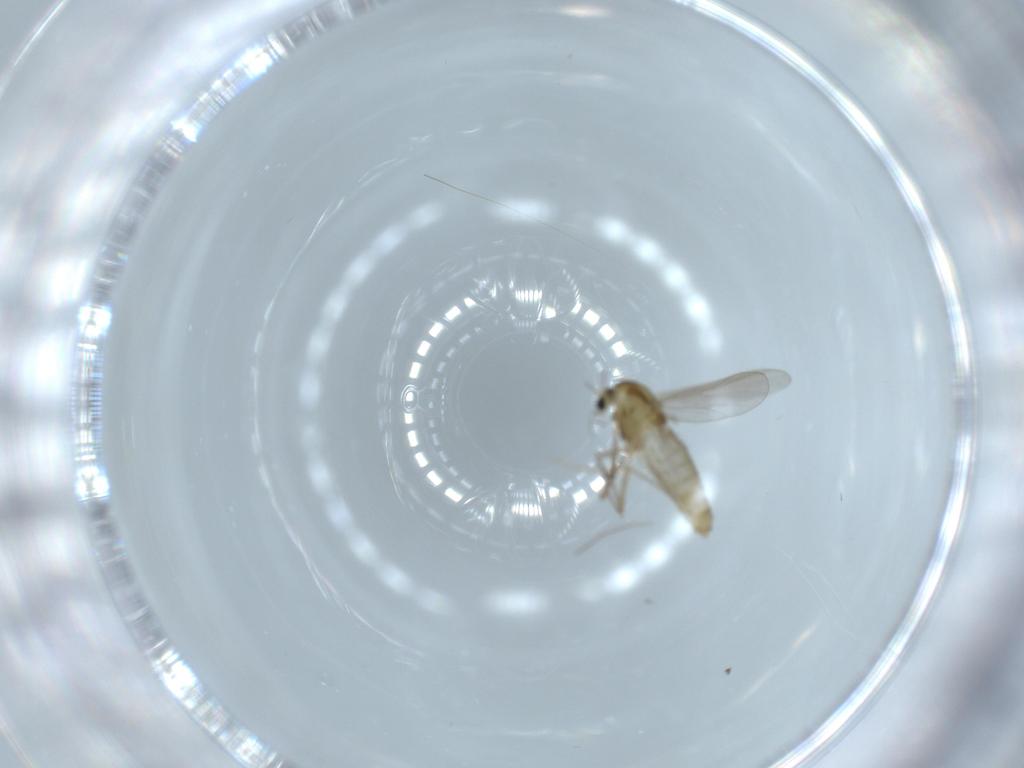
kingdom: Animalia
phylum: Arthropoda
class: Insecta
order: Diptera
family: Chironomidae
